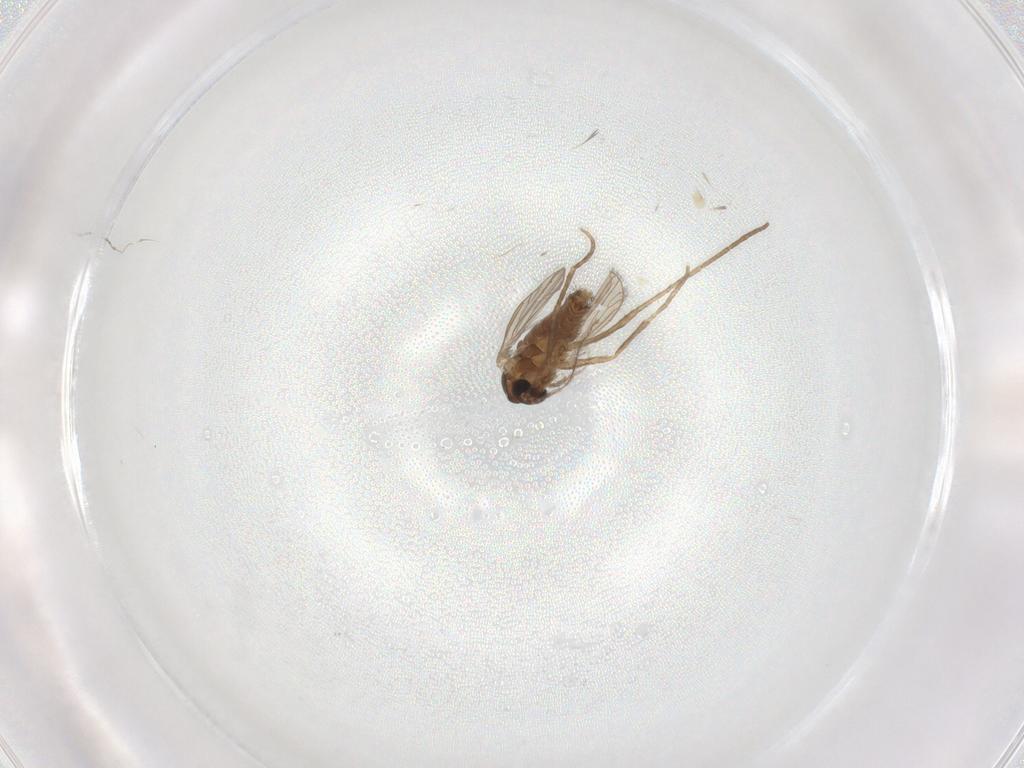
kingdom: Animalia
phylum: Arthropoda
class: Insecta
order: Diptera
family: Psychodidae
